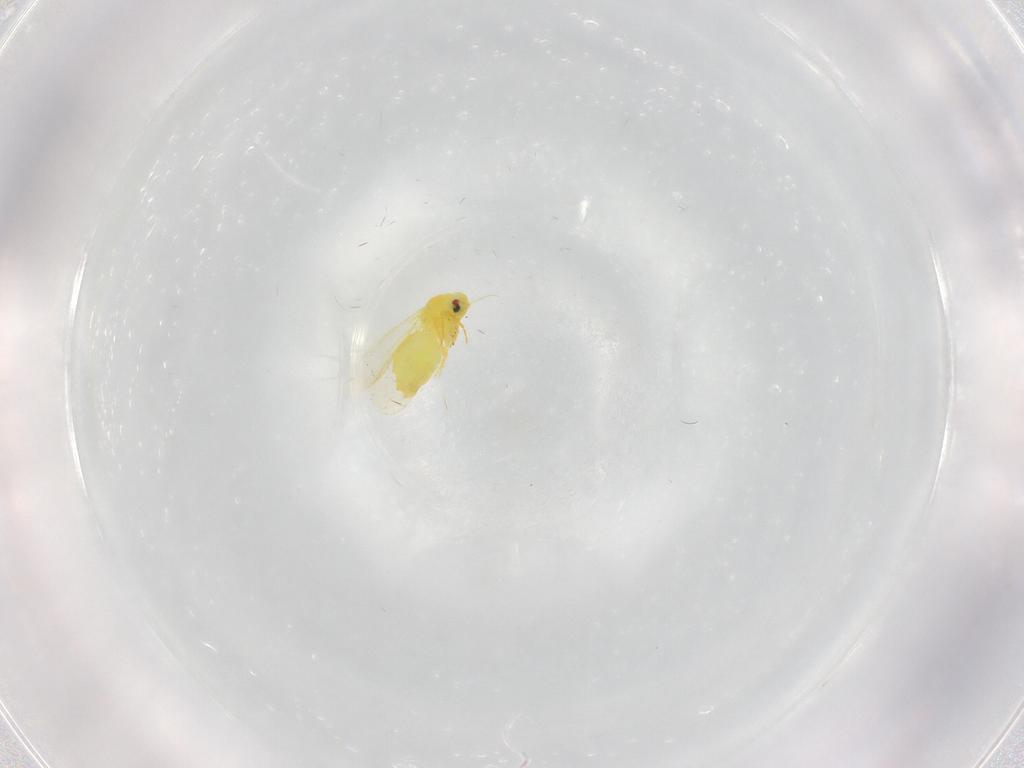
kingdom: Animalia
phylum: Arthropoda
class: Insecta
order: Hemiptera
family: Aleyrodidae
